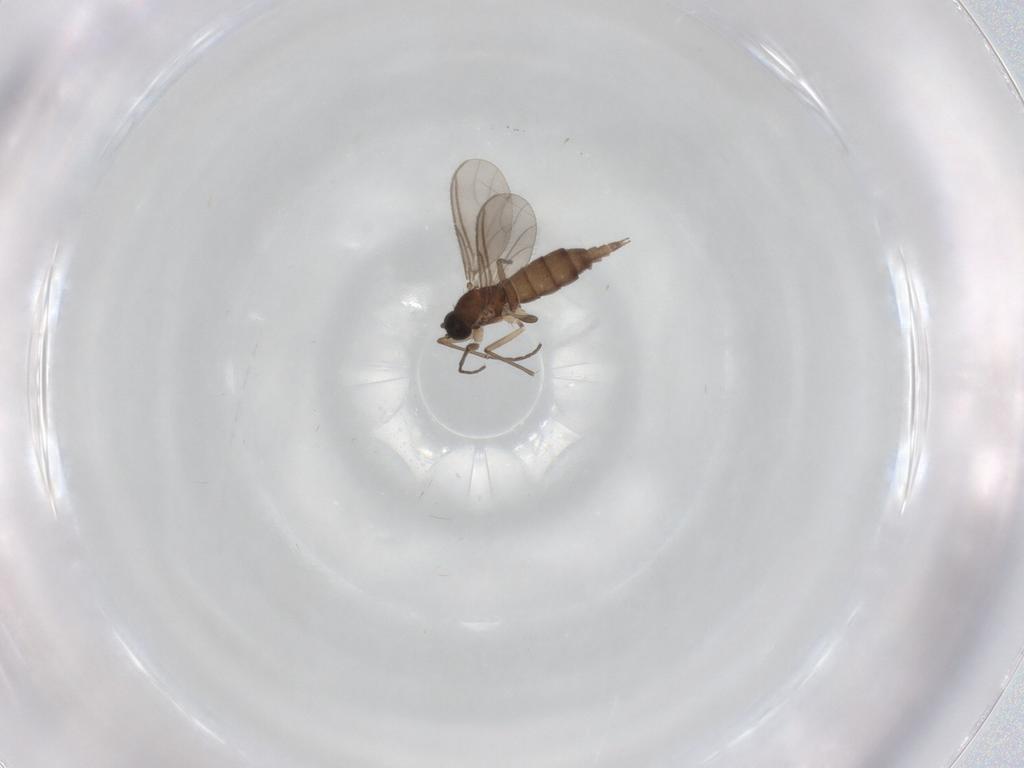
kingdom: Animalia
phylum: Arthropoda
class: Insecta
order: Diptera
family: Sciaridae
